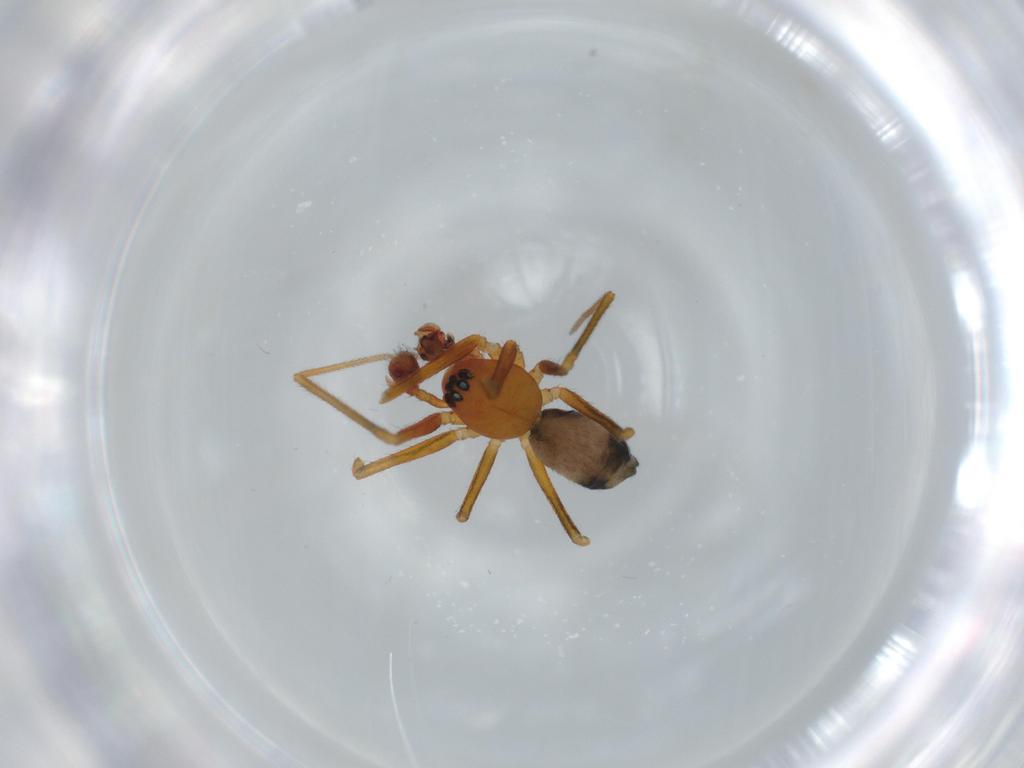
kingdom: Animalia
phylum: Arthropoda
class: Arachnida
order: Araneae
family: Linyphiidae
